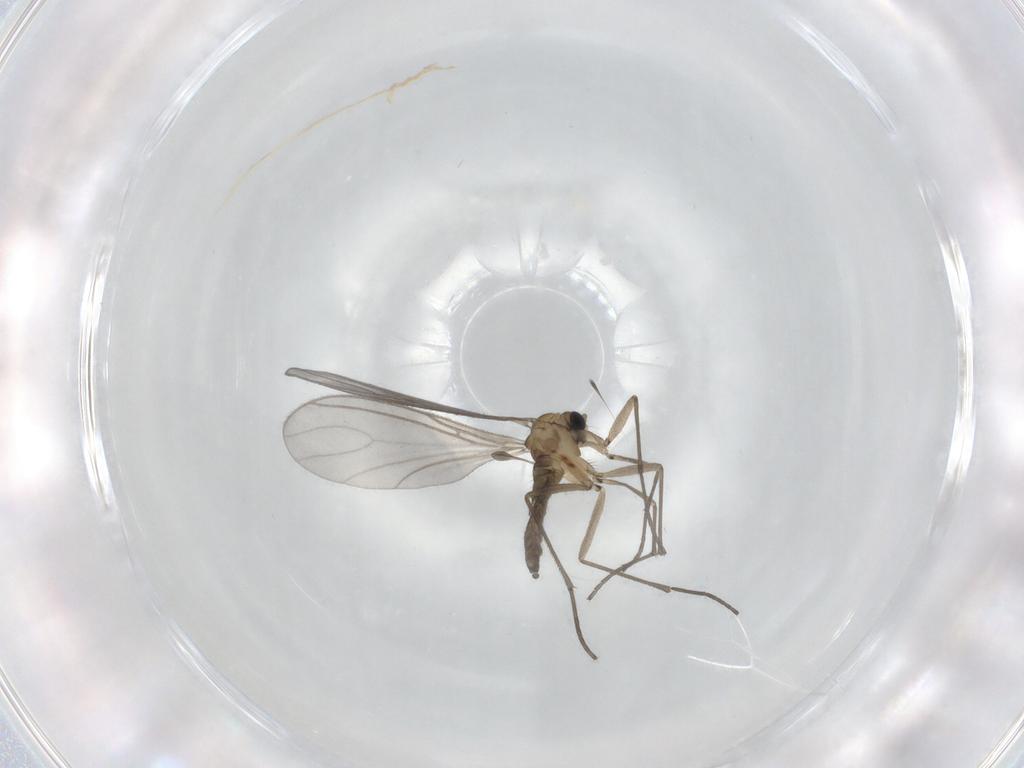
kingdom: Animalia
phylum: Arthropoda
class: Insecta
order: Diptera
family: Sciaridae
